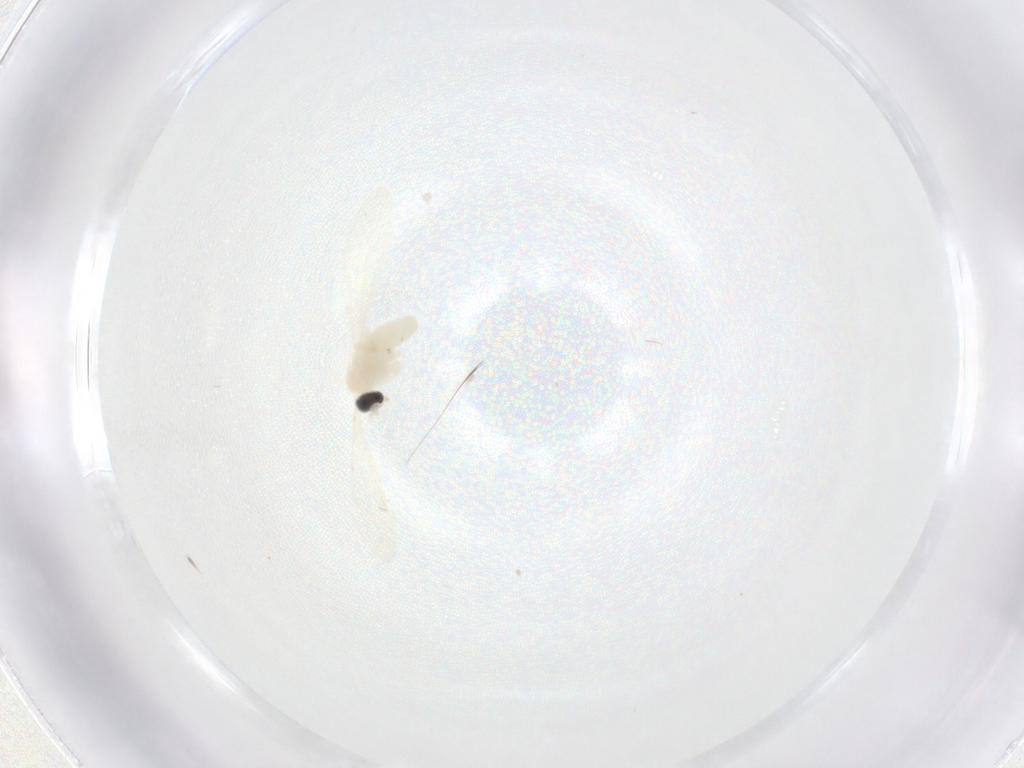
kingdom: Animalia
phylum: Arthropoda
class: Insecta
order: Diptera
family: Cecidomyiidae
